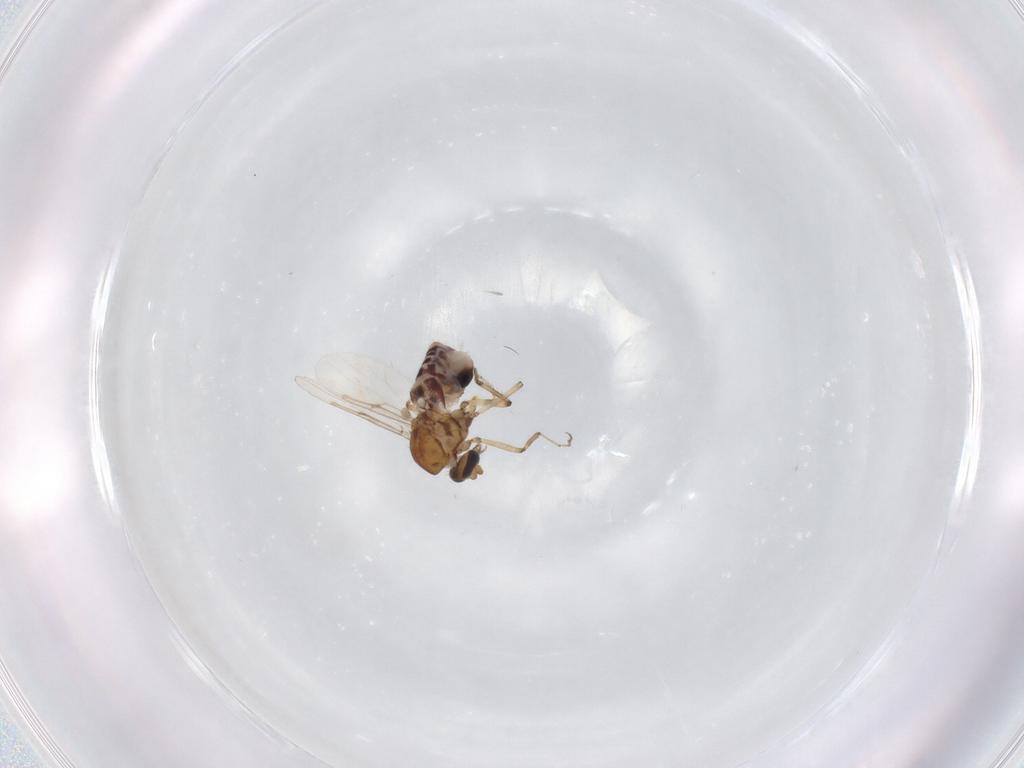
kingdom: Animalia
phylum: Arthropoda
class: Insecta
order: Diptera
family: Ceratopogonidae
